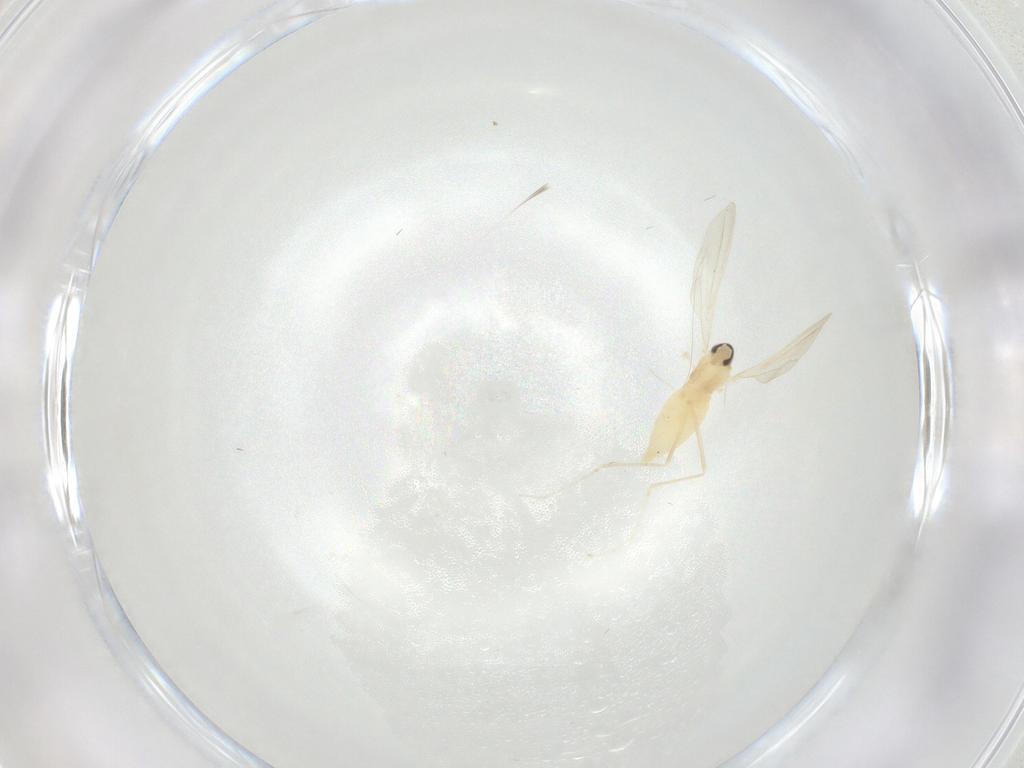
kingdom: Animalia
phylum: Arthropoda
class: Insecta
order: Diptera
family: Cecidomyiidae
